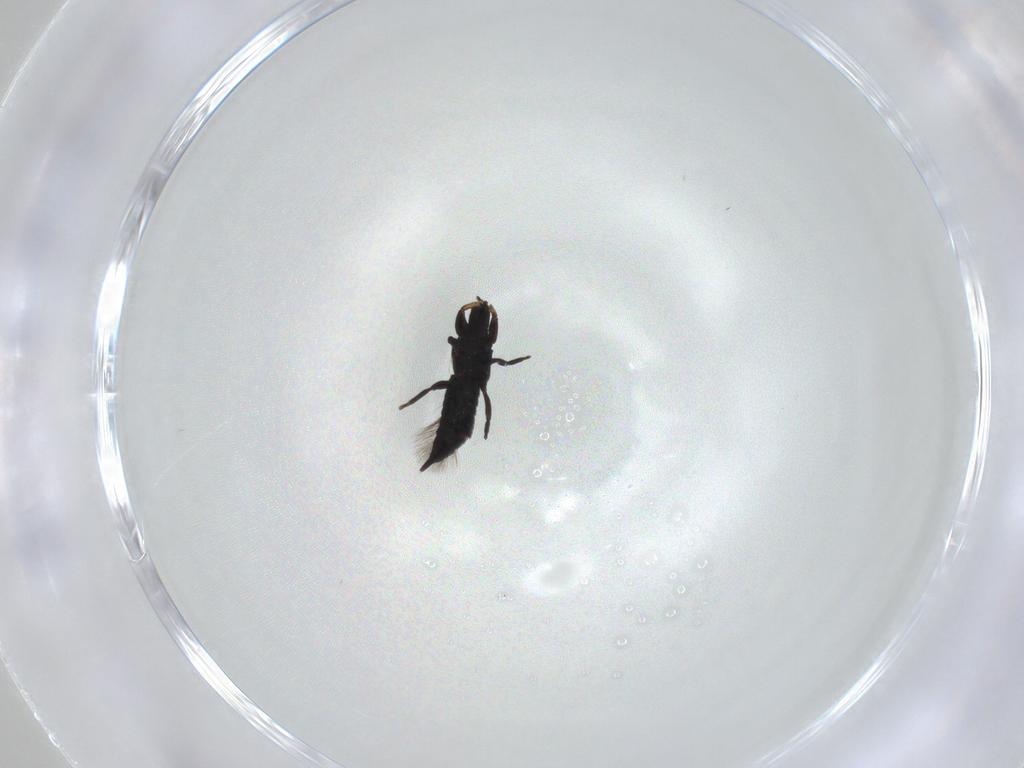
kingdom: Animalia
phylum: Arthropoda
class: Insecta
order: Thysanoptera
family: Phlaeothripidae
